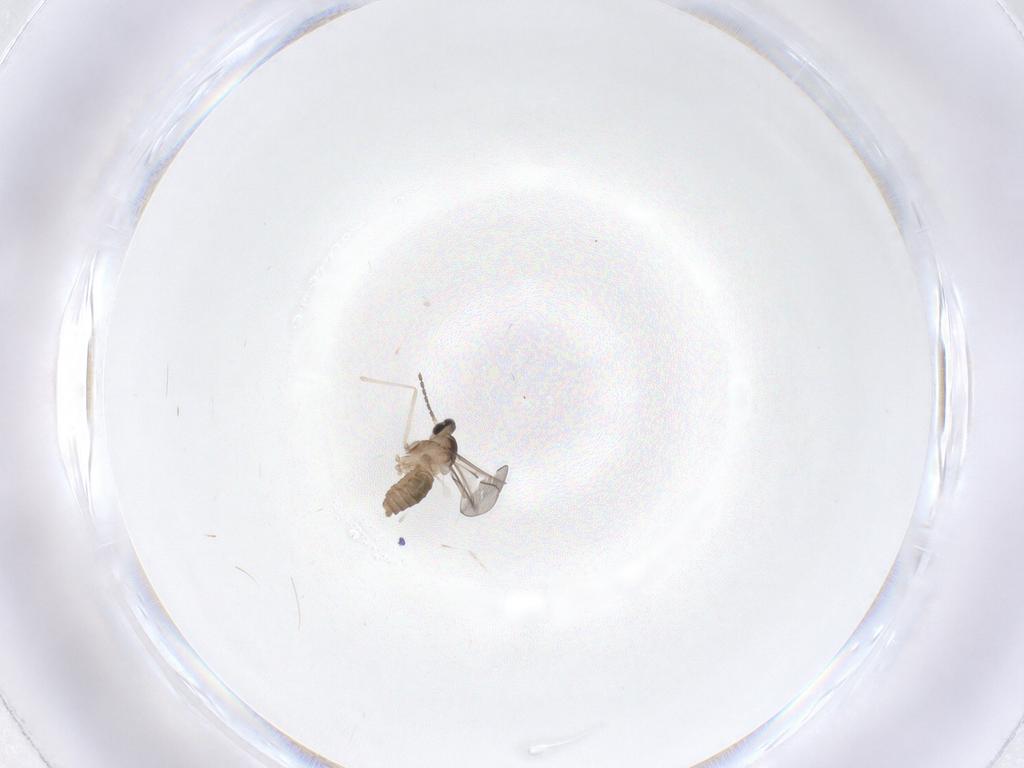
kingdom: Animalia
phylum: Arthropoda
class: Insecta
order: Diptera
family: Cecidomyiidae
